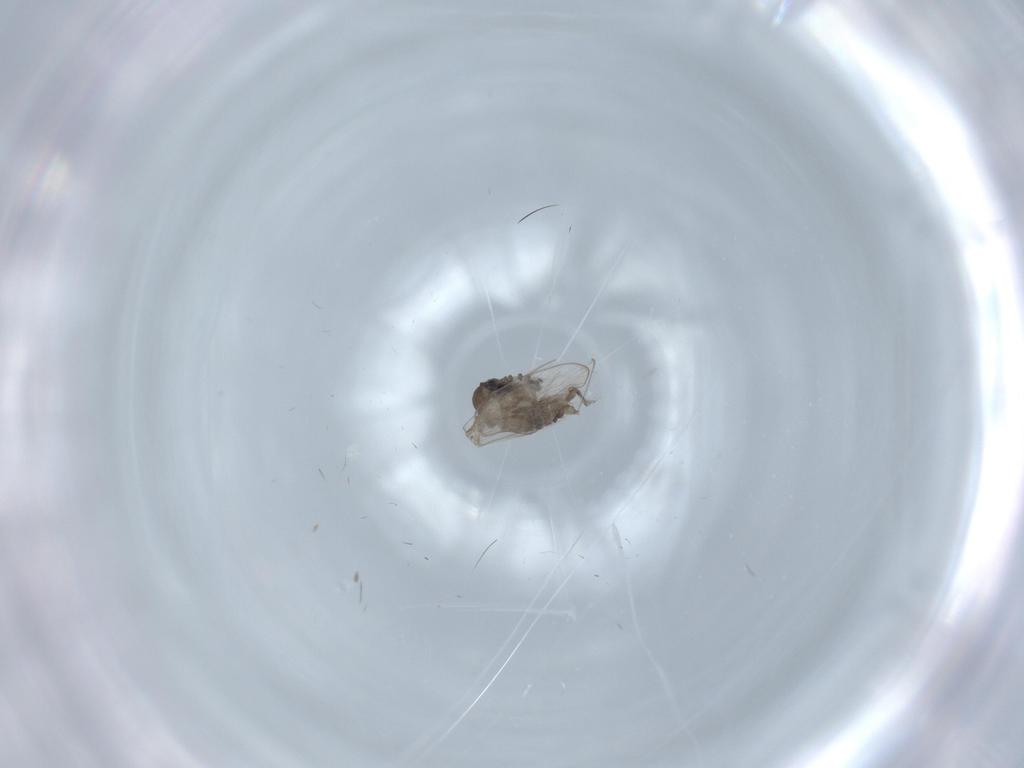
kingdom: Animalia
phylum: Arthropoda
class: Insecta
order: Diptera
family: Psychodidae
